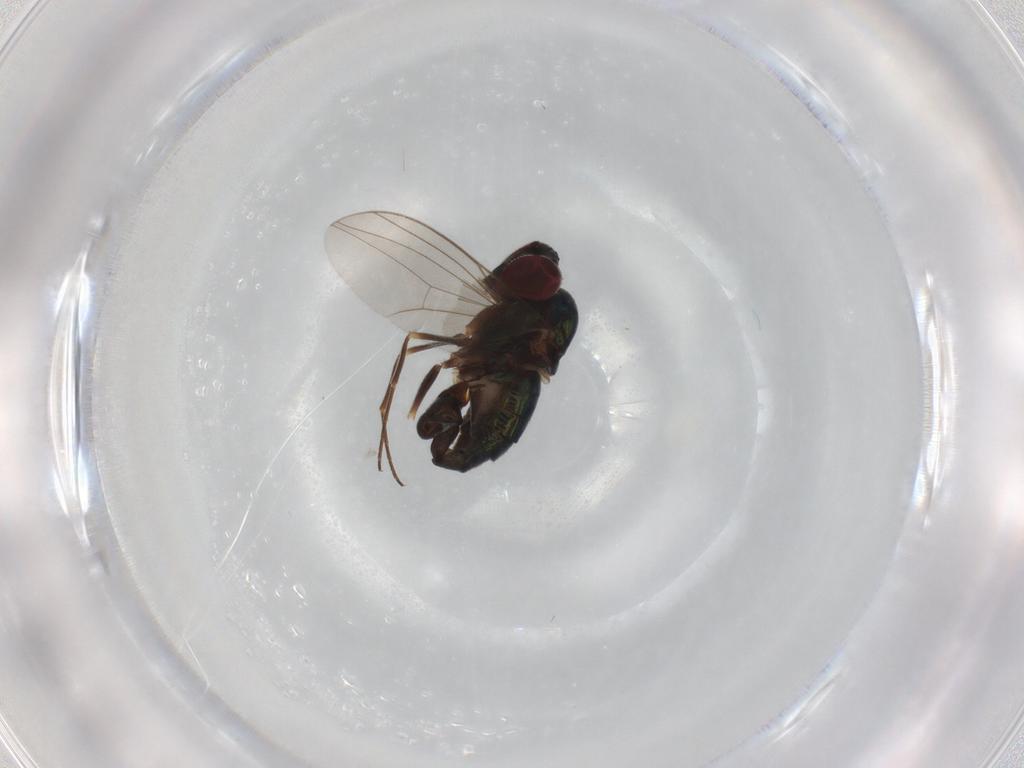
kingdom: Animalia
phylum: Arthropoda
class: Insecta
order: Diptera
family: Dolichopodidae
